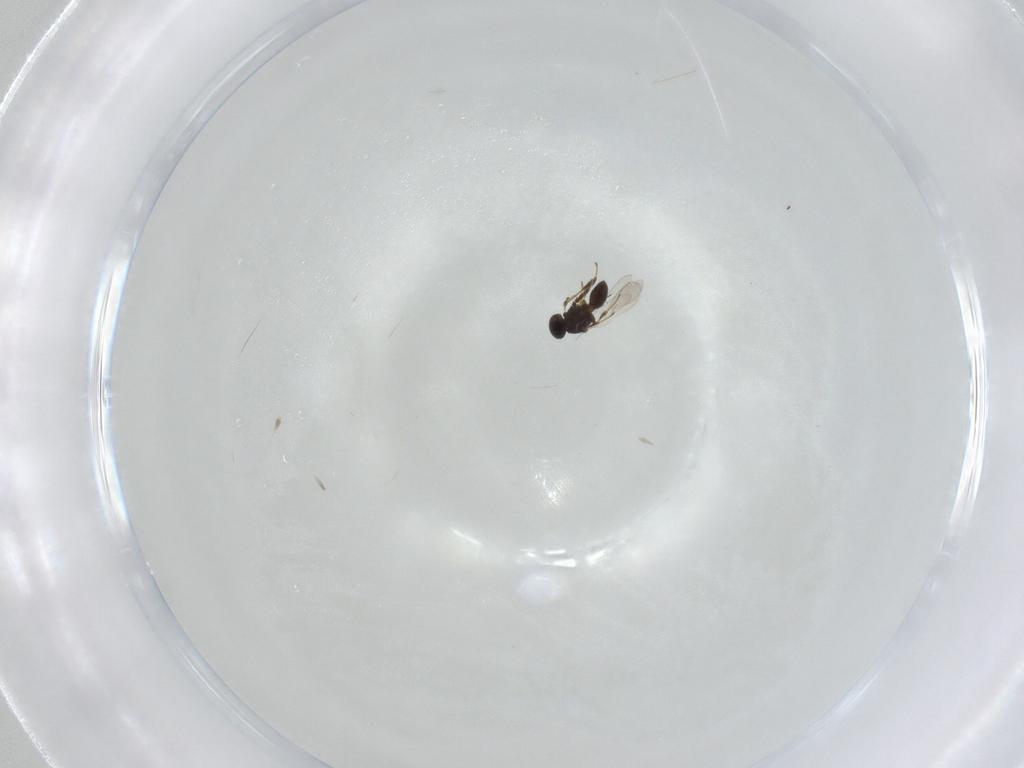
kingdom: Animalia
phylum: Arthropoda
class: Insecta
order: Hymenoptera
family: Platygastridae
